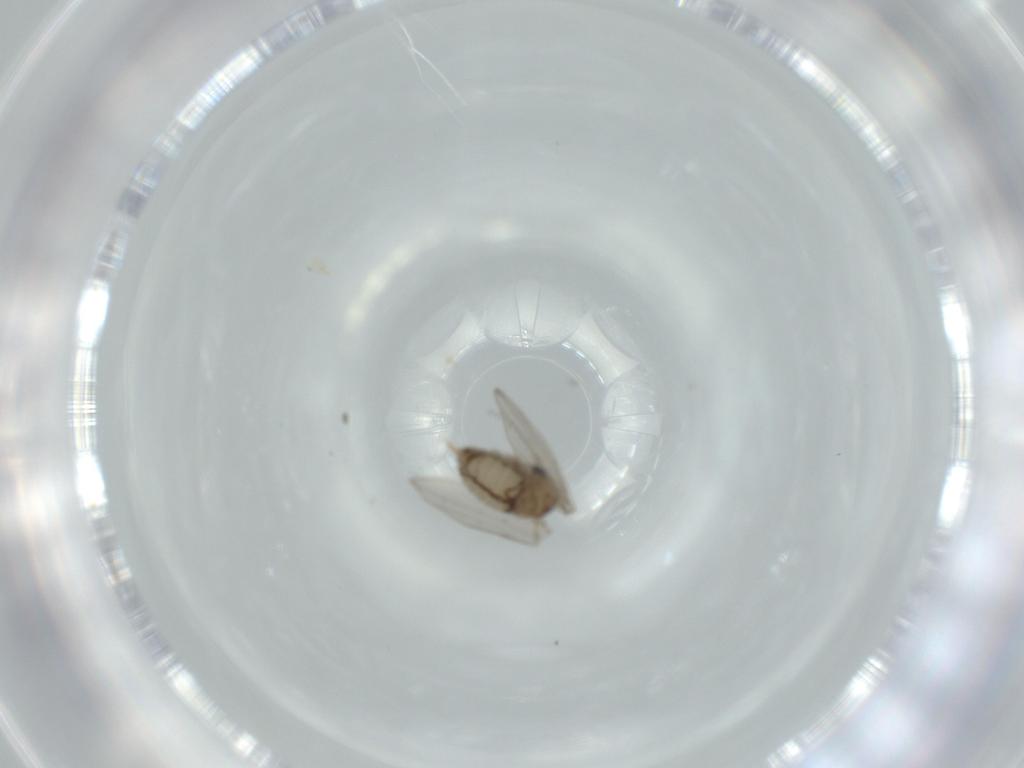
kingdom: Animalia
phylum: Arthropoda
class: Insecta
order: Diptera
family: Psychodidae
